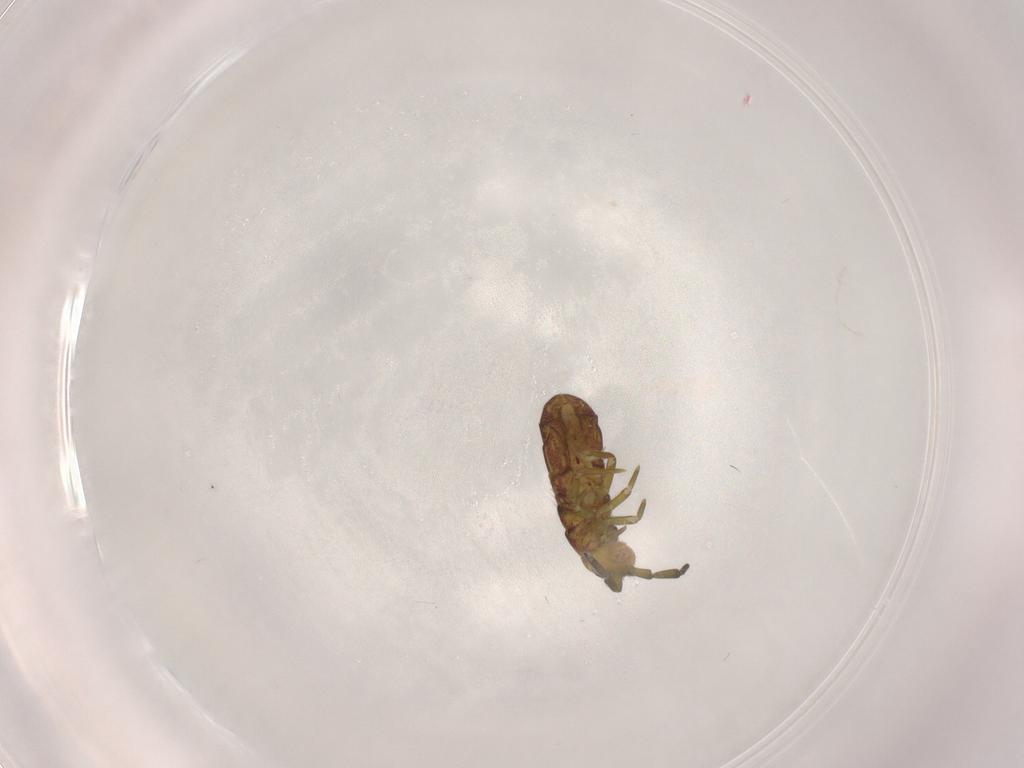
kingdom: Animalia
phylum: Arthropoda
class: Collembola
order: Entomobryomorpha
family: Isotomidae
